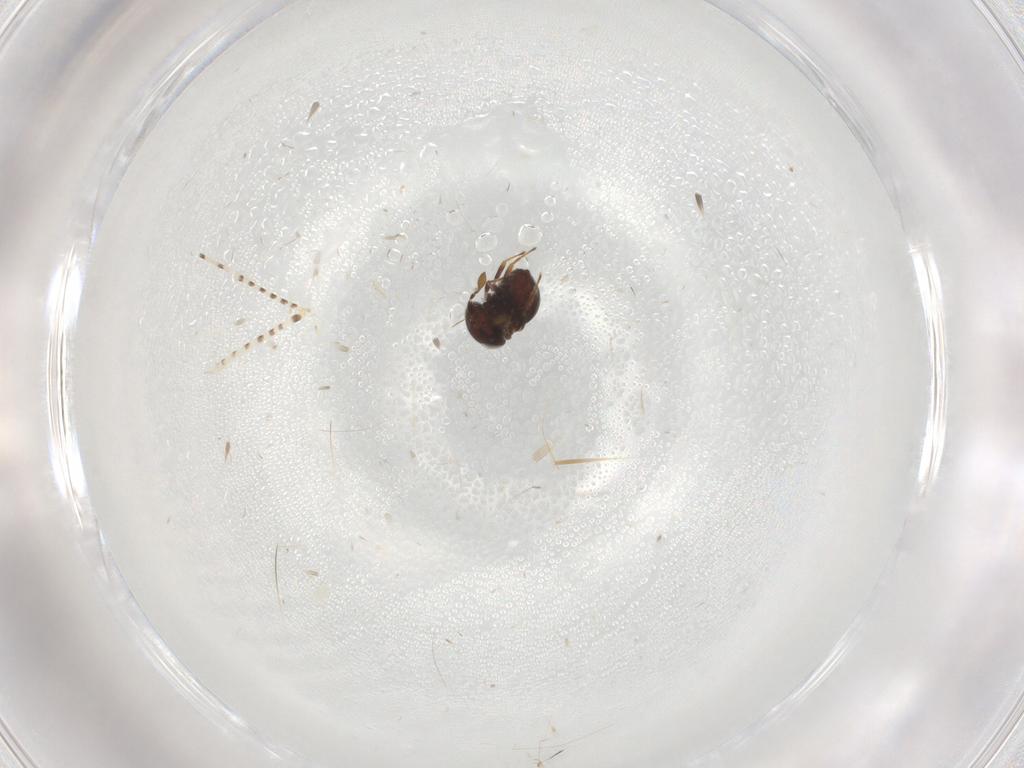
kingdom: Animalia
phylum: Arthropoda
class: Insecta
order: Hymenoptera
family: Scelionidae
